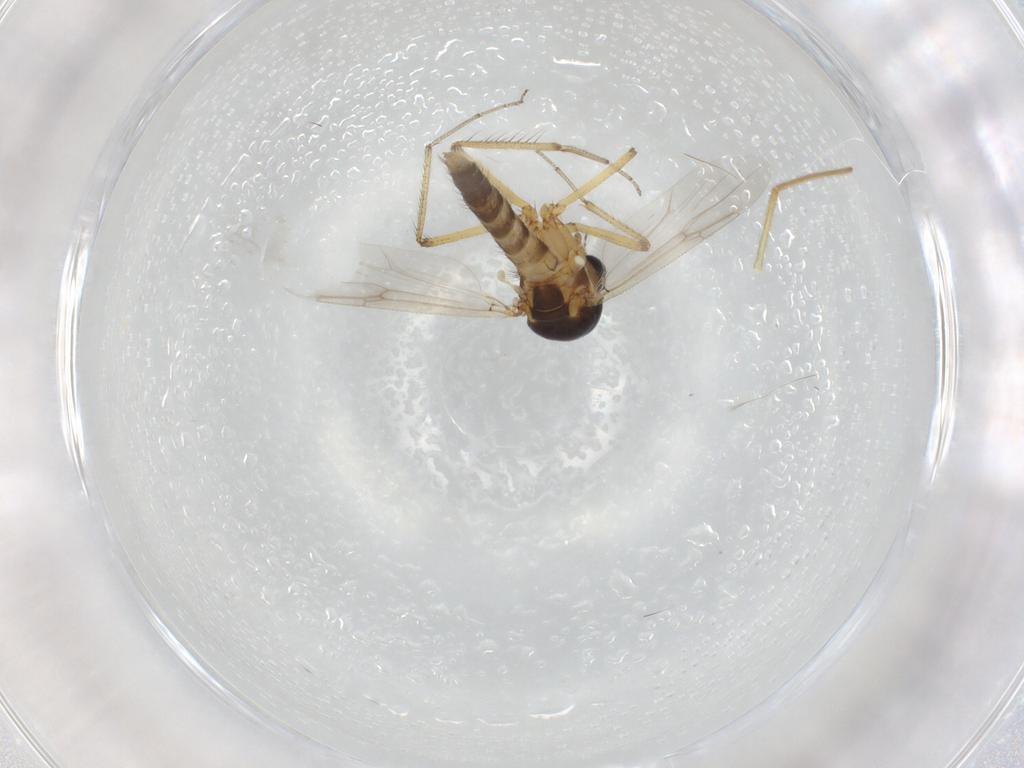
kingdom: Animalia
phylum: Arthropoda
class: Insecta
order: Diptera
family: Ceratopogonidae
